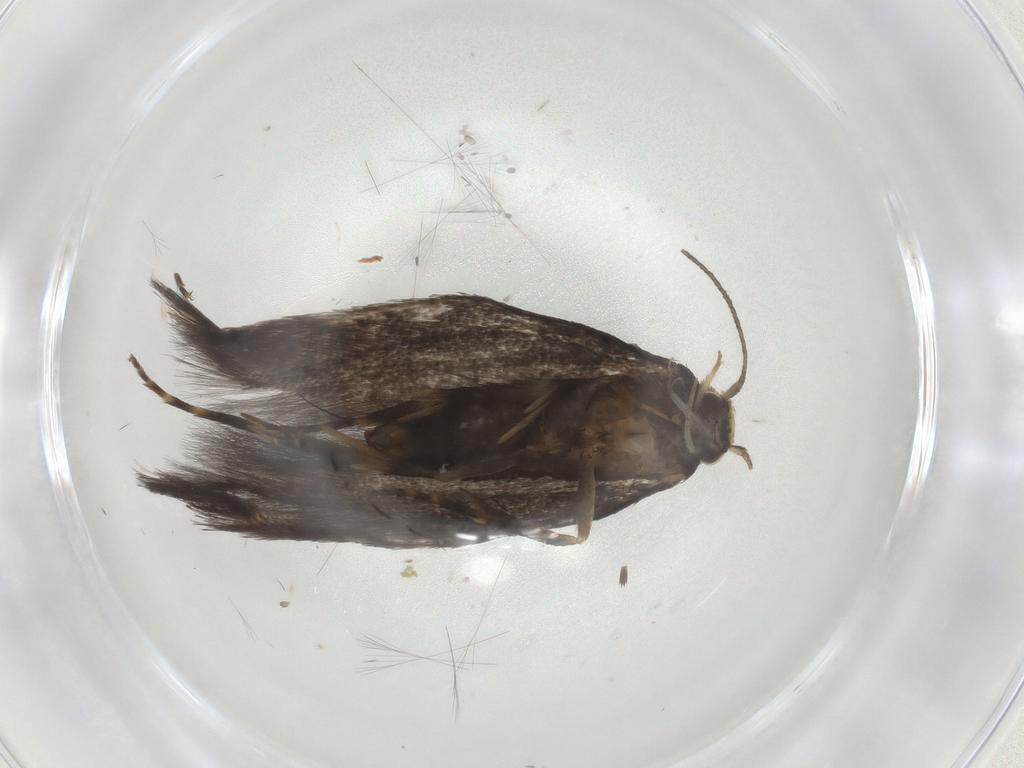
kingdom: Animalia
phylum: Arthropoda
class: Insecta
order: Lepidoptera
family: Elachistidae
